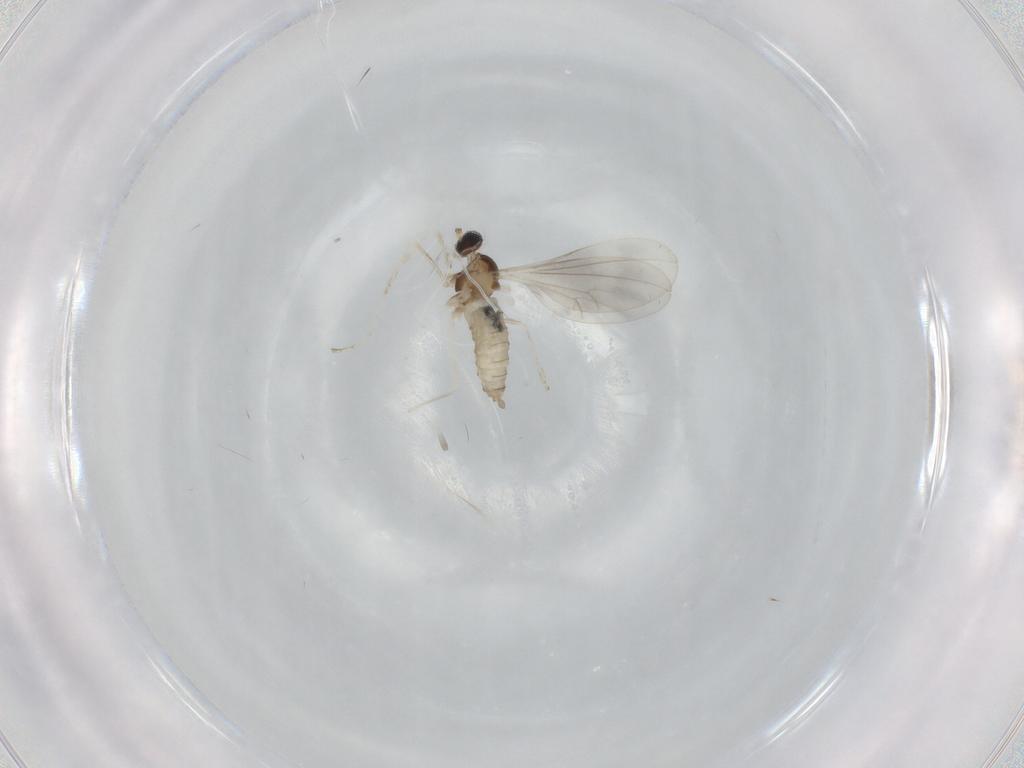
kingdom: Animalia
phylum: Arthropoda
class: Insecta
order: Diptera
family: Cecidomyiidae
